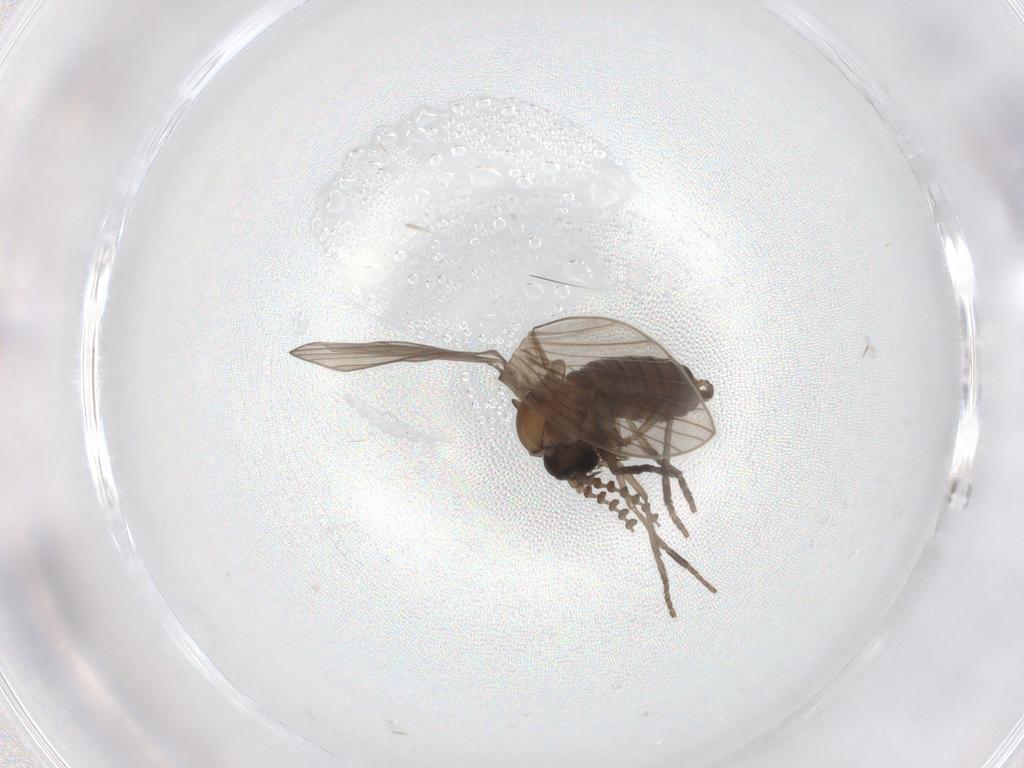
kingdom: Animalia
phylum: Arthropoda
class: Insecta
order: Diptera
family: Psychodidae
